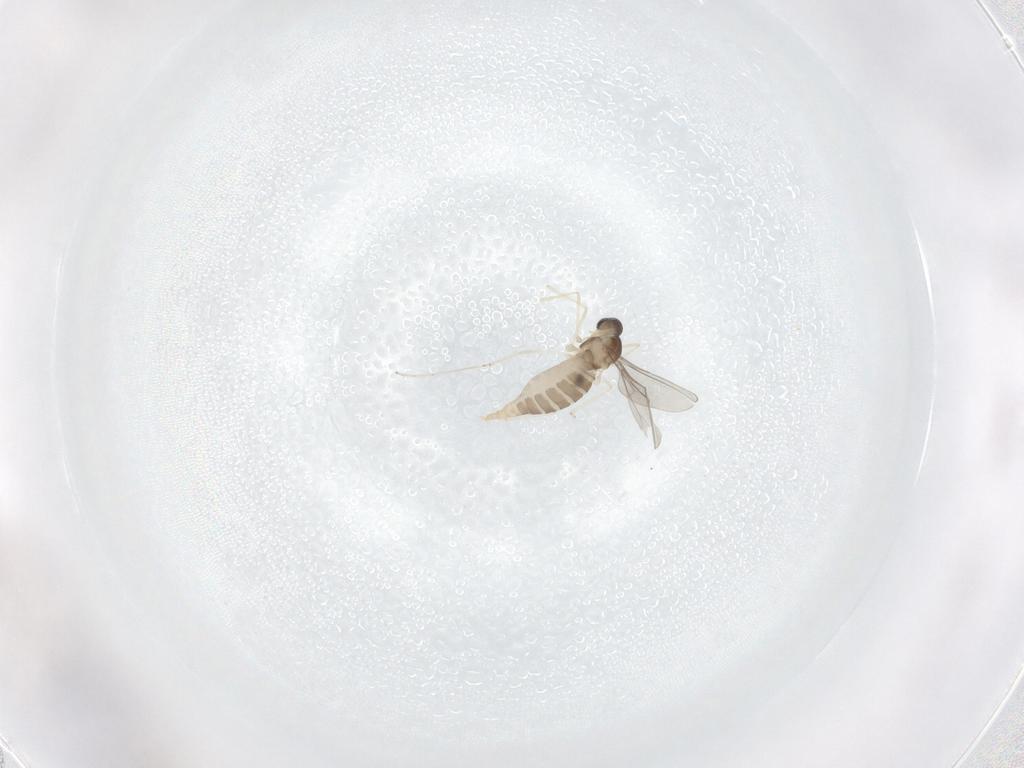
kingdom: Animalia
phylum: Arthropoda
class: Insecta
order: Diptera
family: Cecidomyiidae
